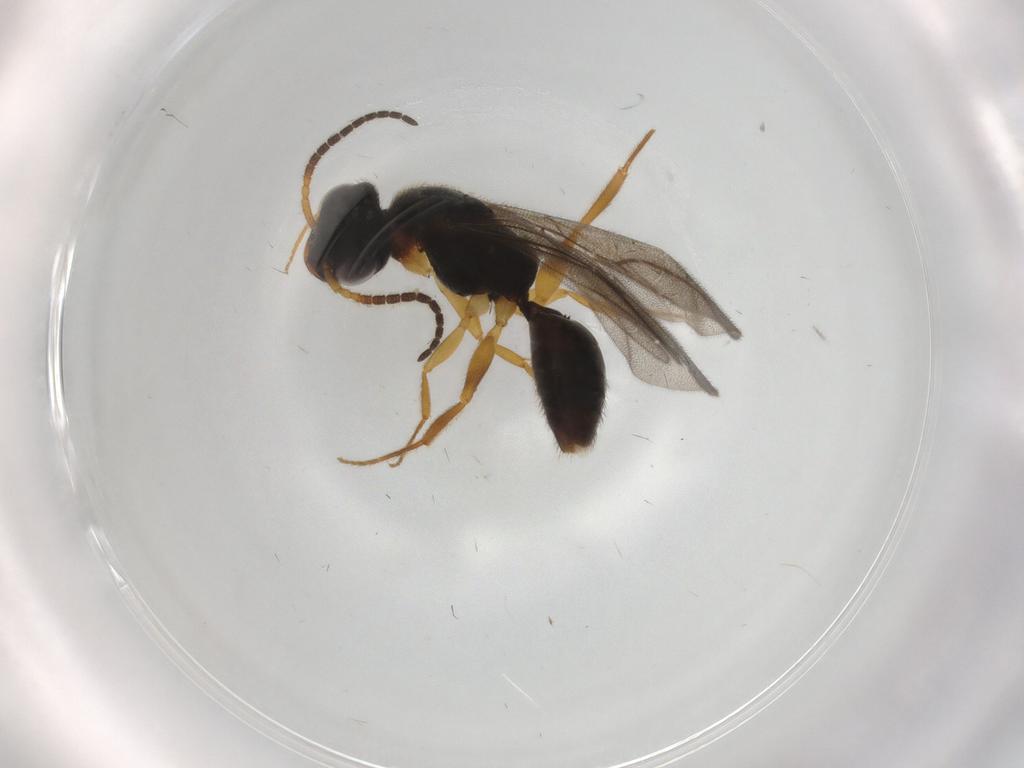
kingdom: Animalia
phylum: Arthropoda
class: Insecta
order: Hymenoptera
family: Bethylidae
